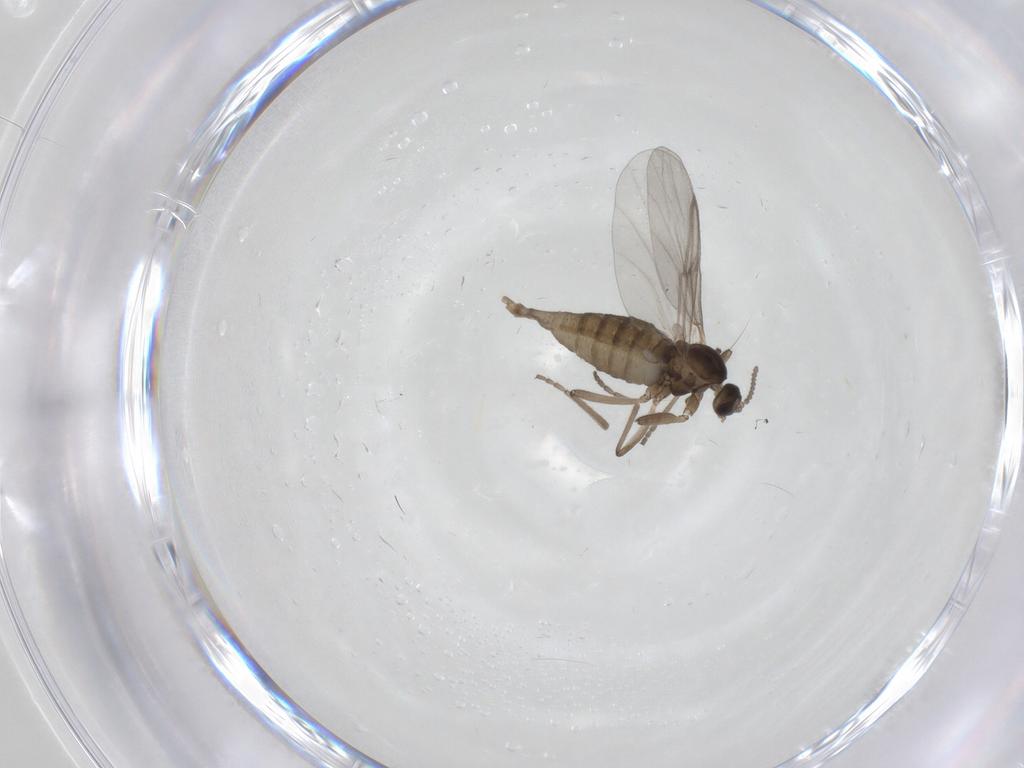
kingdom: Animalia
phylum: Arthropoda
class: Insecta
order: Diptera
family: Cecidomyiidae
